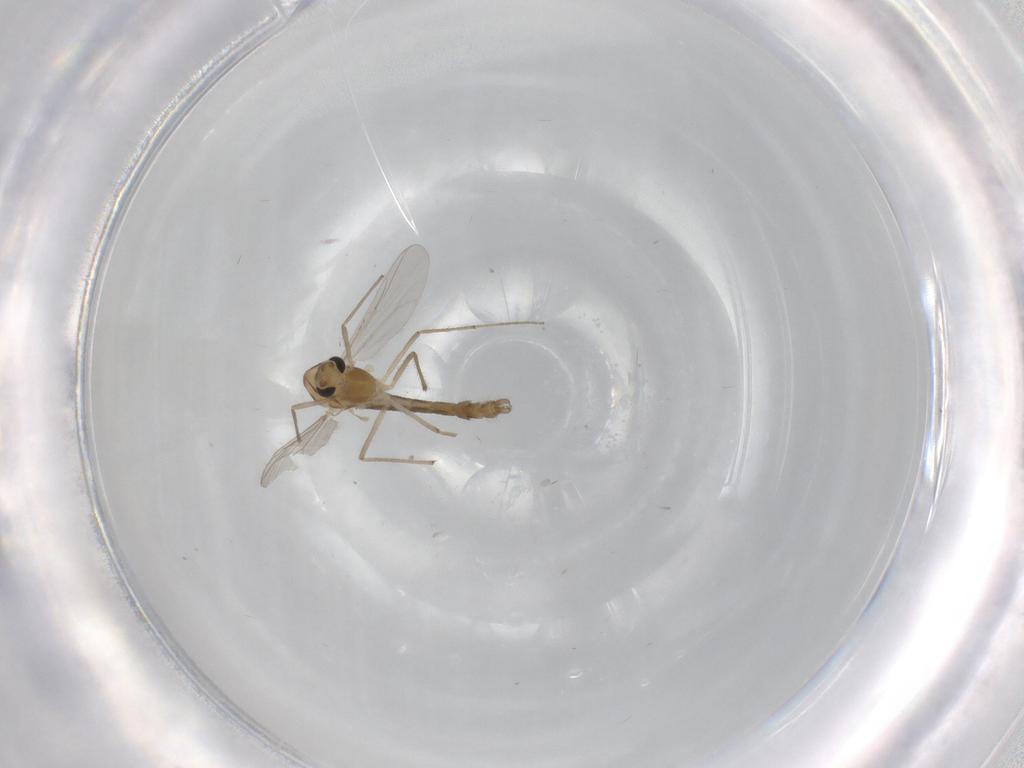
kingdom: Animalia
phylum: Arthropoda
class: Insecta
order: Diptera
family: Chironomidae
